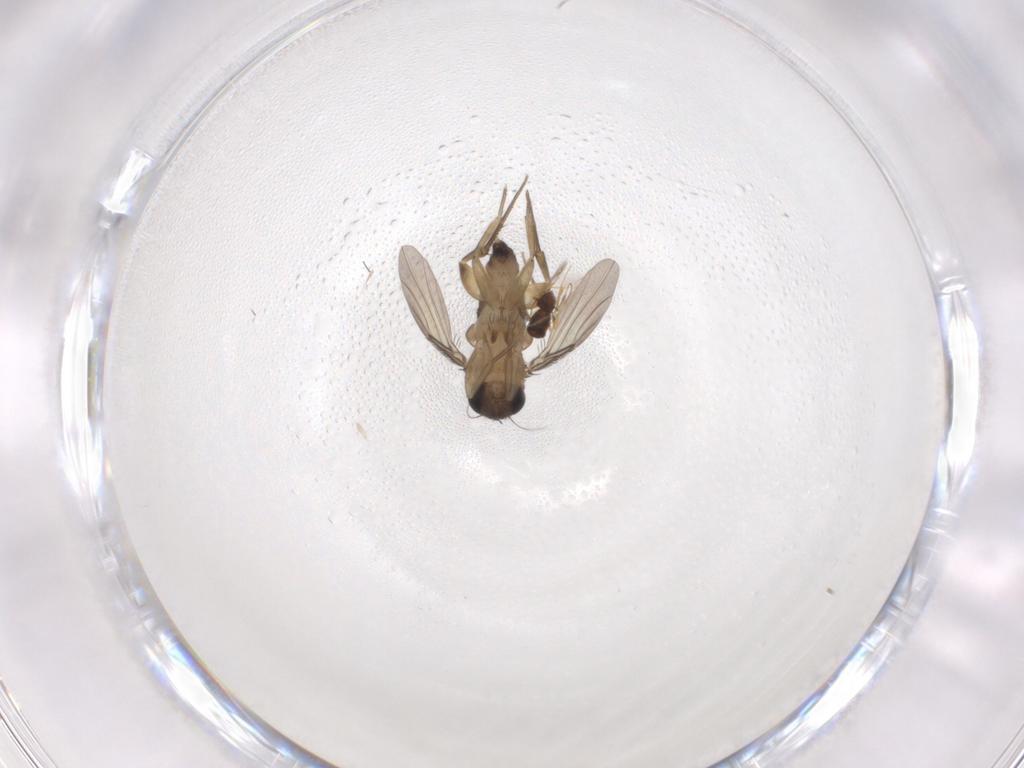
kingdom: Animalia
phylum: Arthropoda
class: Insecta
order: Diptera
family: Phoridae
